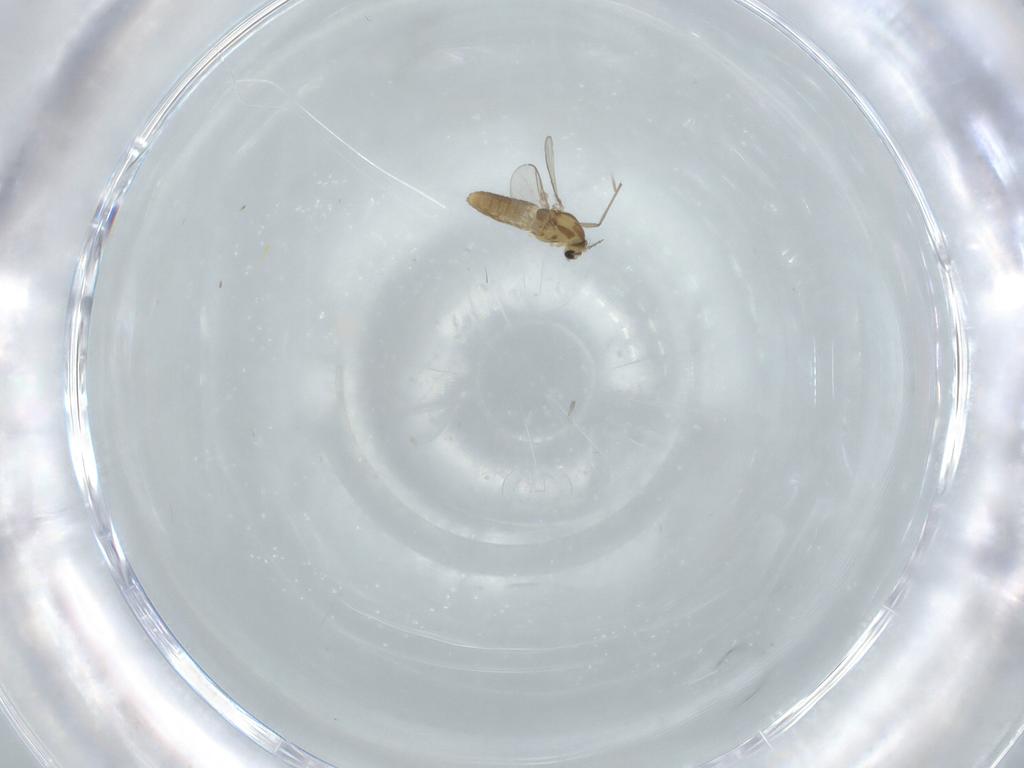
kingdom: Animalia
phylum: Arthropoda
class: Insecta
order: Diptera
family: Chironomidae
